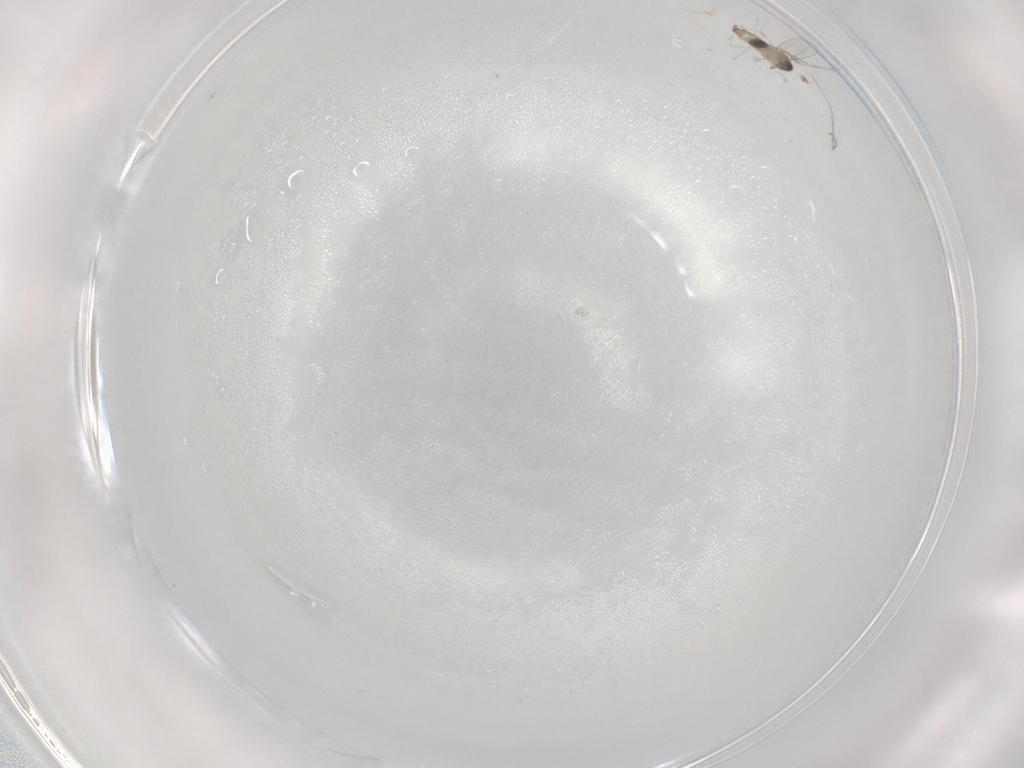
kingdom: Animalia
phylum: Arthropoda
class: Insecta
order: Diptera
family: Cecidomyiidae
